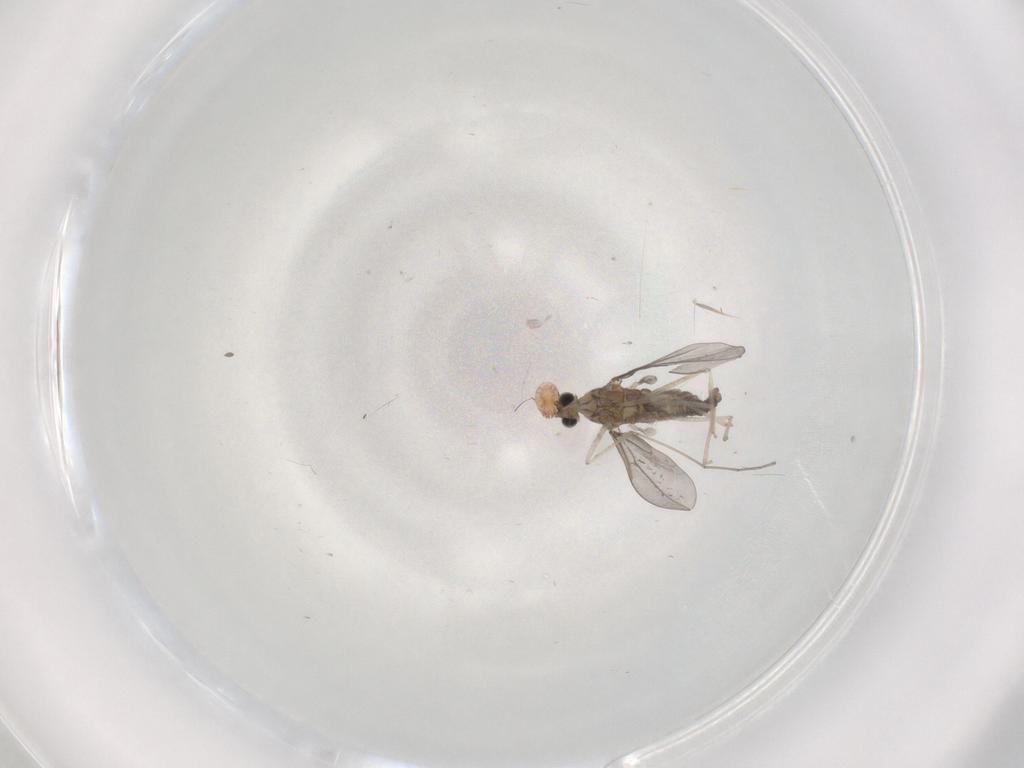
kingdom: Animalia
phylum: Arthropoda
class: Insecta
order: Diptera
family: Cecidomyiidae
